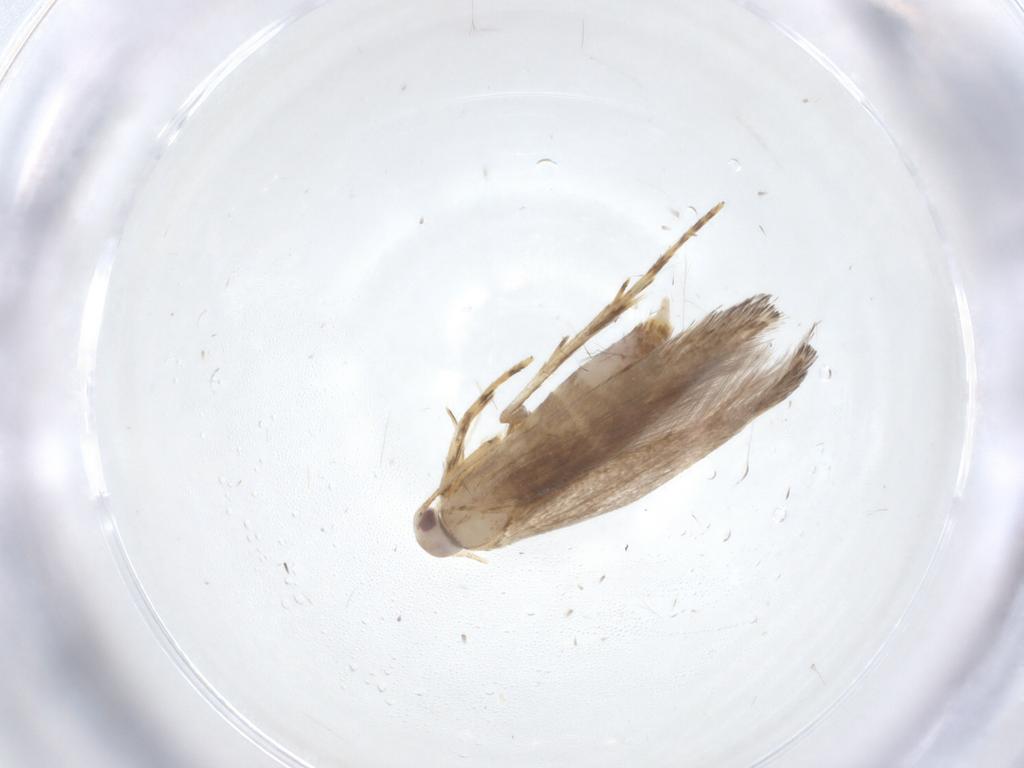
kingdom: Animalia
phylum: Arthropoda
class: Insecta
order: Lepidoptera
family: Cosmopterigidae
